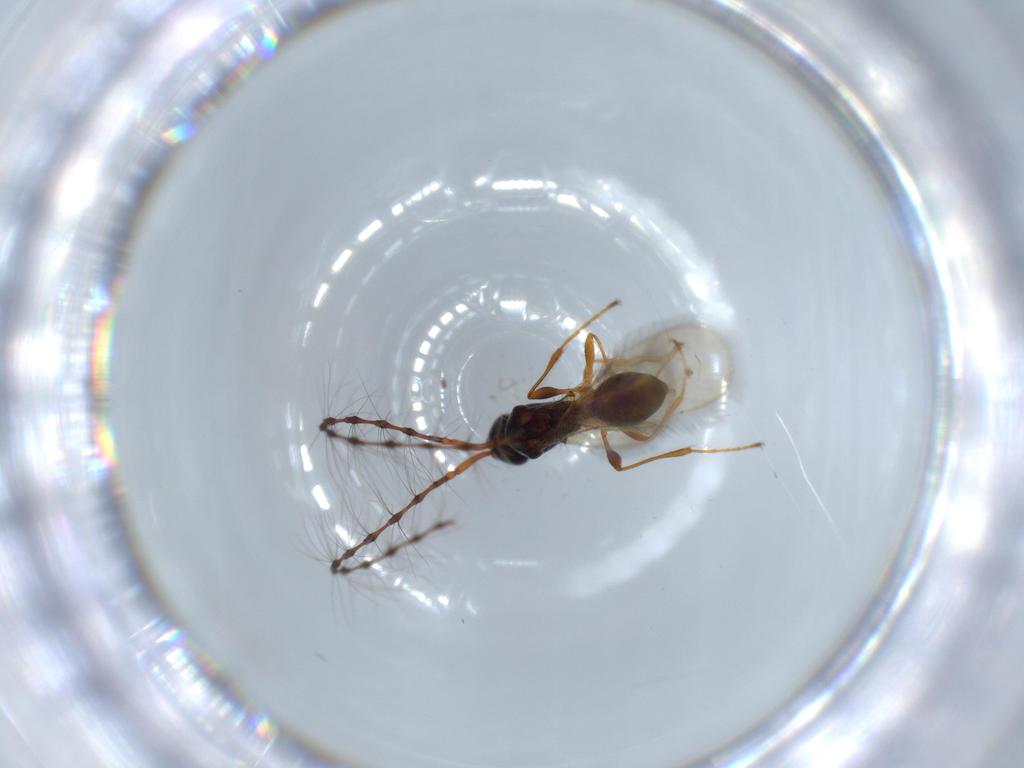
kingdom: Animalia
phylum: Arthropoda
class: Insecta
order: Hymenoptera
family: Diapriidae
